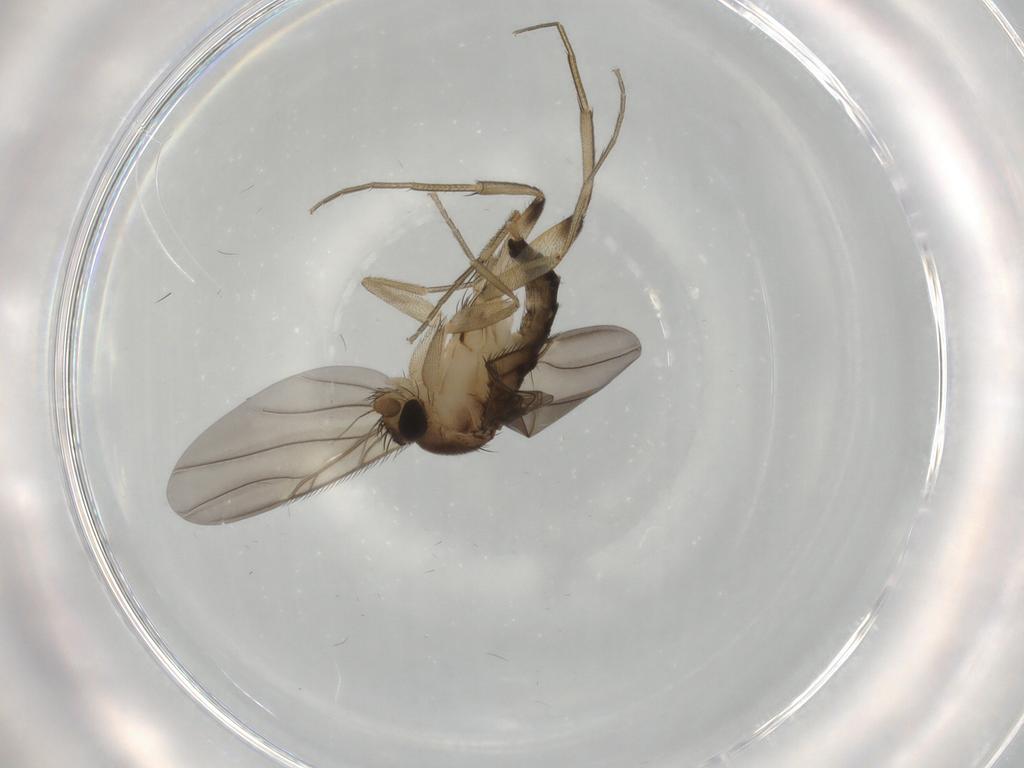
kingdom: Animalia
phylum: Arthropoda
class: Insecta
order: Diptera
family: Phoridae
